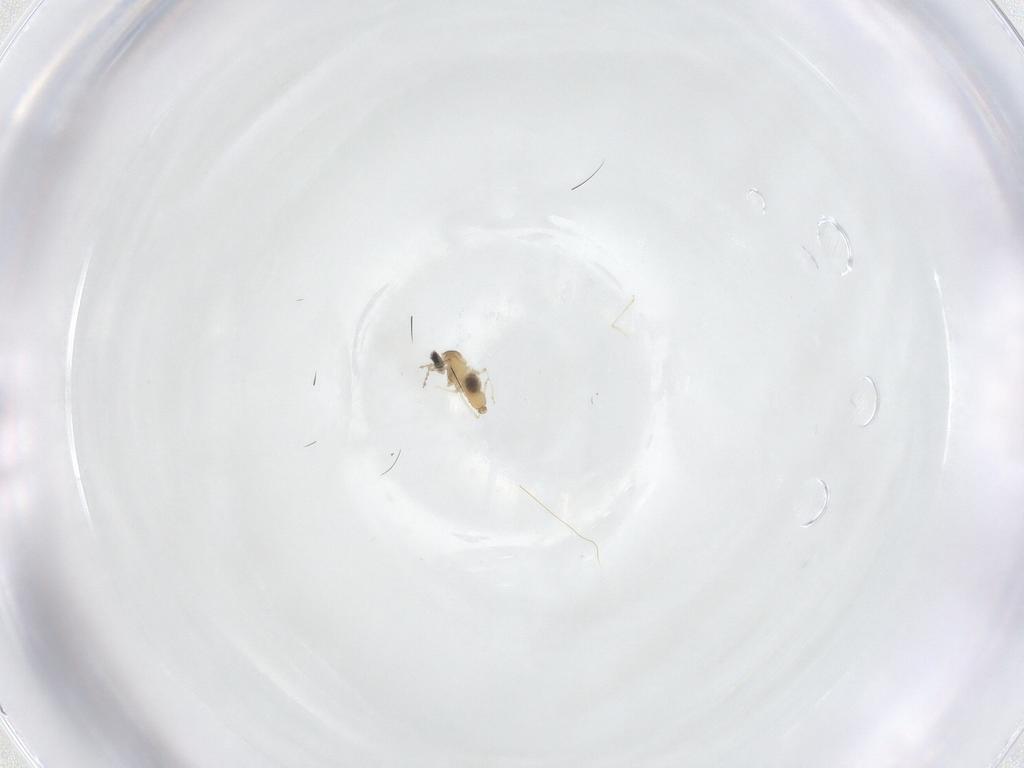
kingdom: Animalia
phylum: Arthropoda
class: Insecta
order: Diptera
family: Cecidomyiidae
